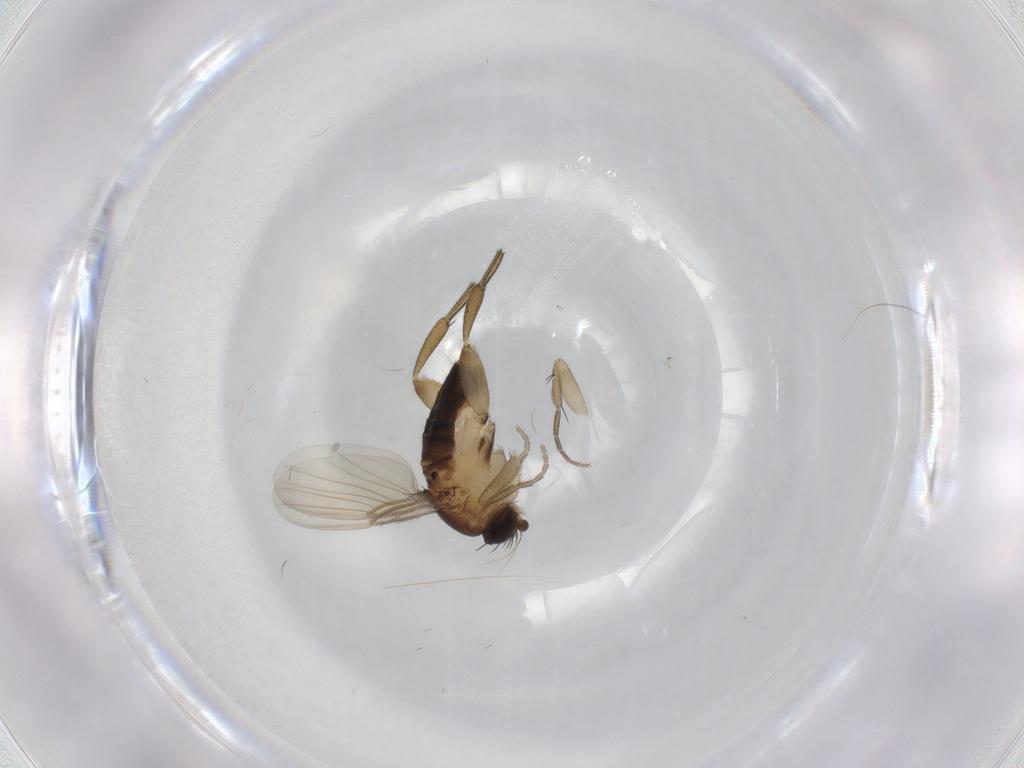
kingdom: Animalia
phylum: Arthropoda
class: Insecta
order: Diptera
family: Phoridae
